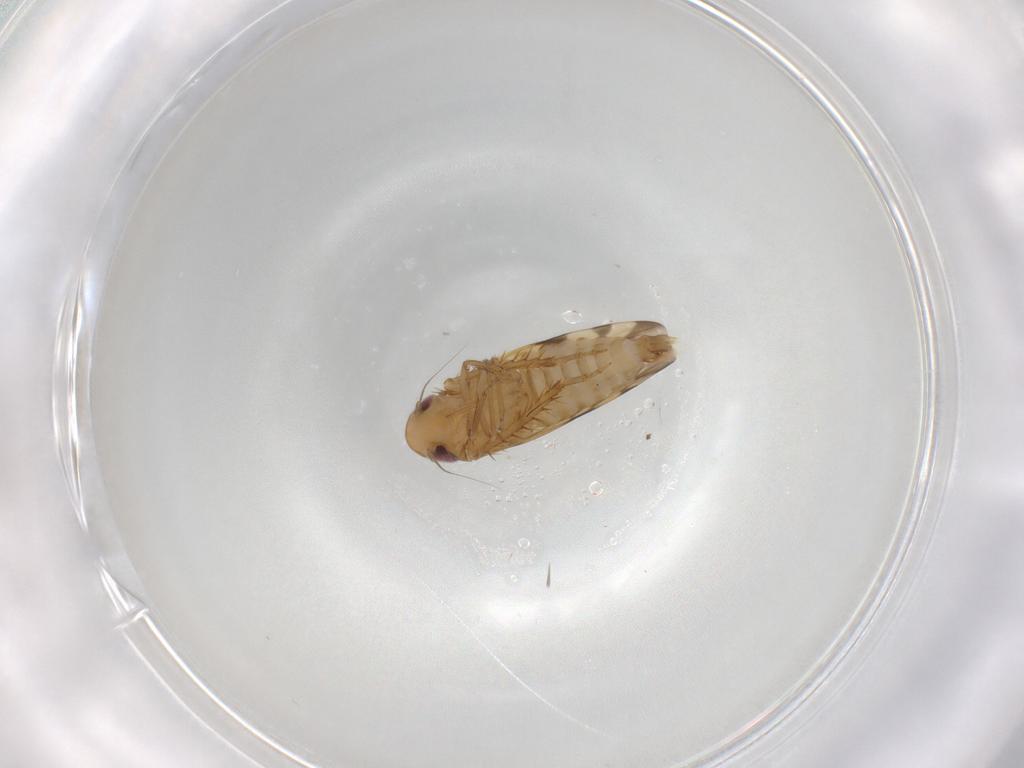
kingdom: Animalia
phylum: Arthropoda
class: Insecta
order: Hemiptera
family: Cicadellidae
